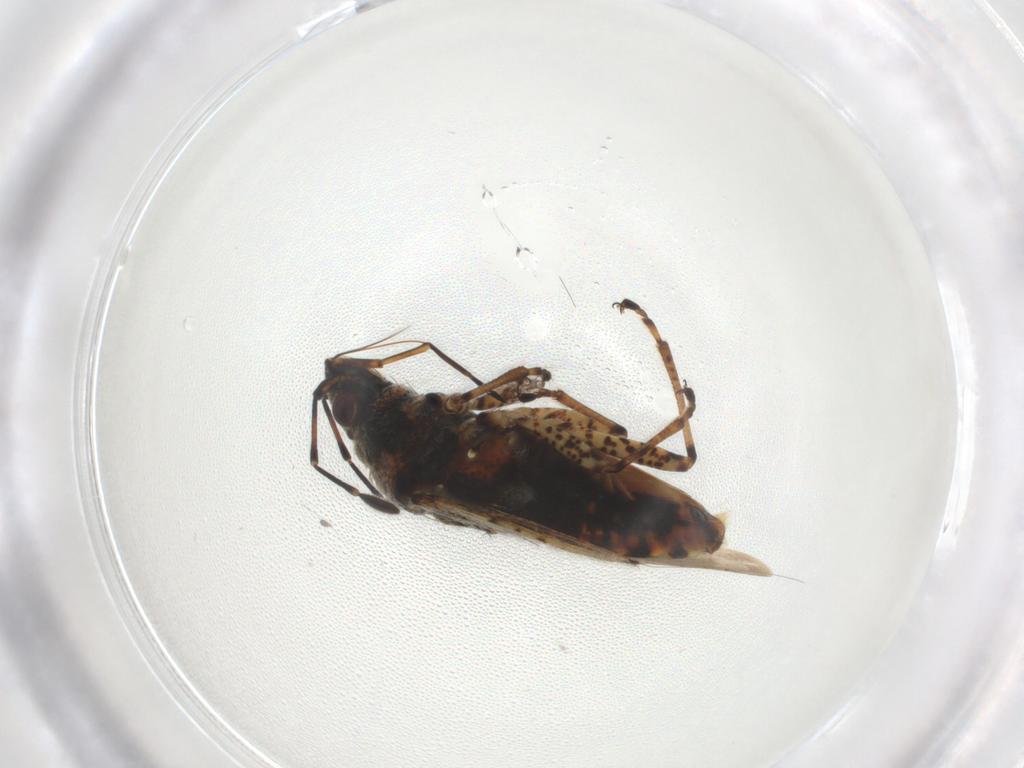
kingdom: Animalia
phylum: Arthropoda
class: Insecta
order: Hemiptera
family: Lygaeidae
